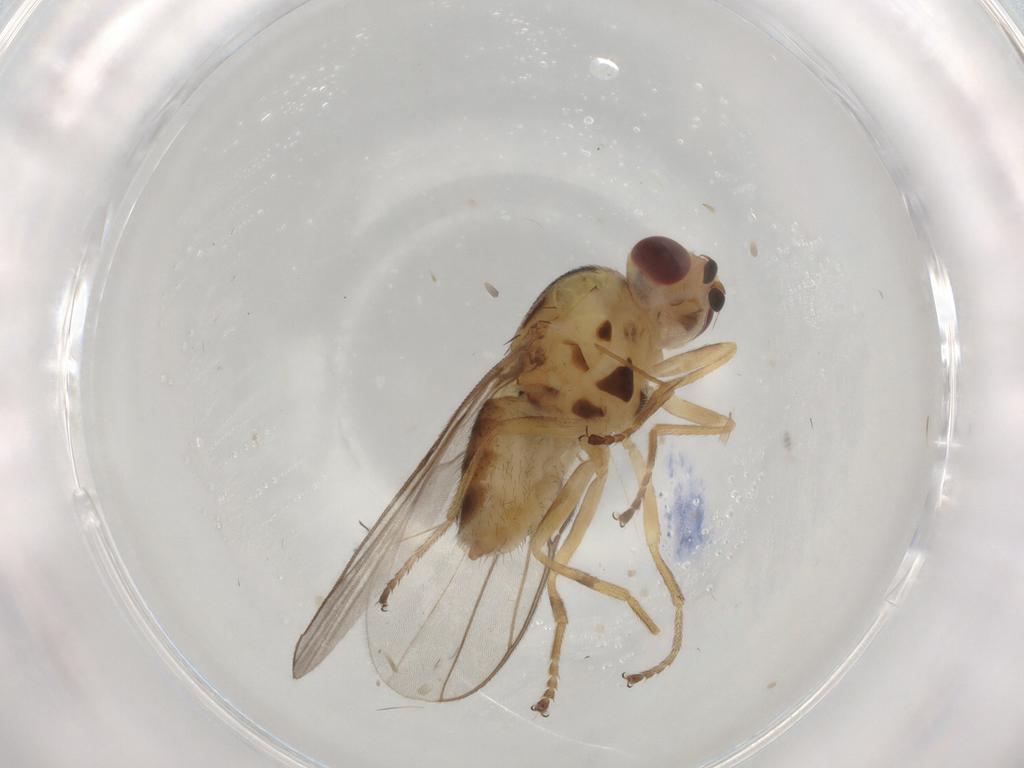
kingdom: Animalia
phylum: Arthropoda
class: Insecta
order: Diptera
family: Chloropidae
